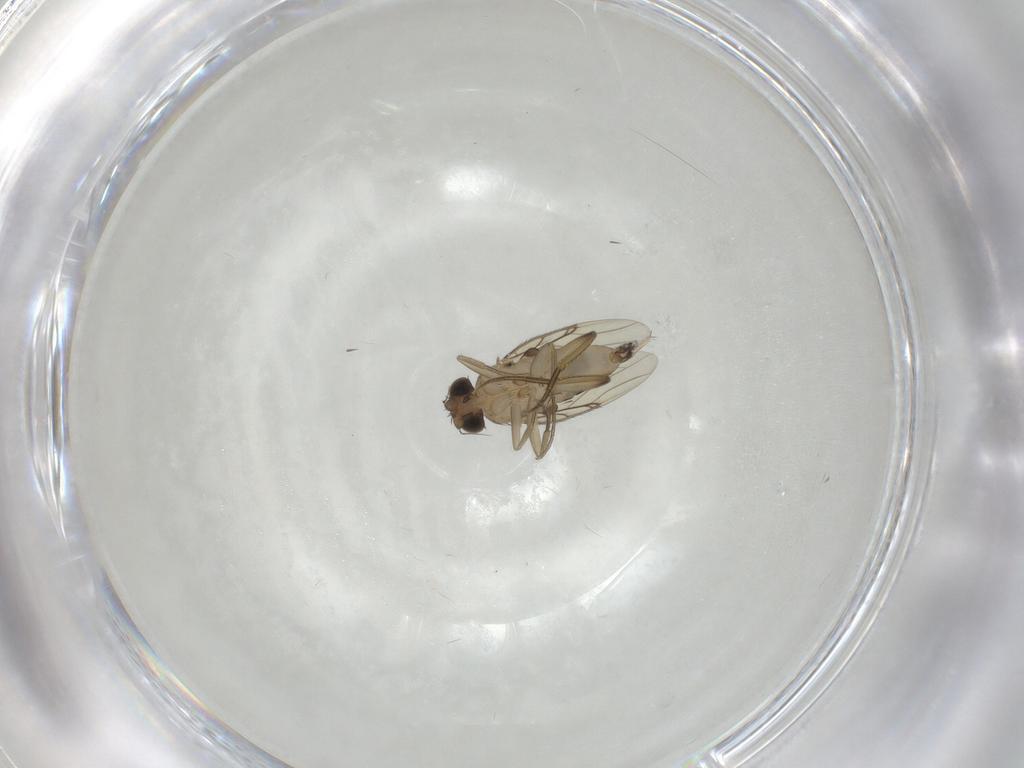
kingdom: Animalia
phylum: Arthropoda
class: Insecta
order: Diptera
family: Phoridae
